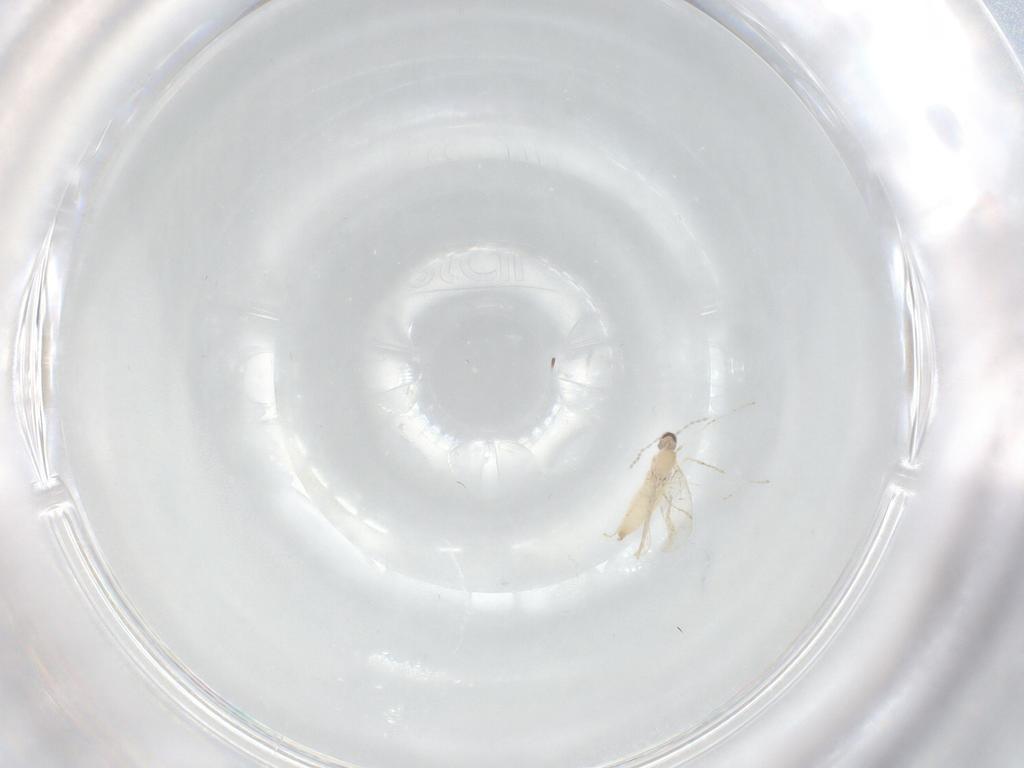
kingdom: Animalia
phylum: Arthropoda
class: Insecta
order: Diptera
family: Cecidomyiidae
